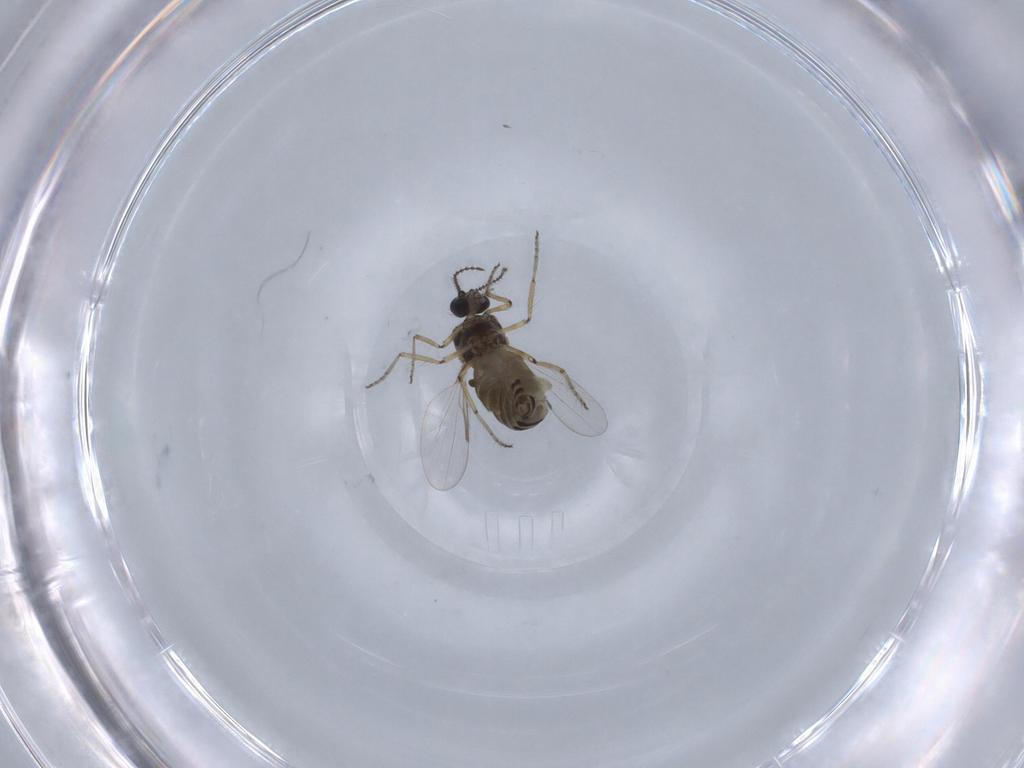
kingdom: Animalia
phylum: Arthropoda
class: Insecta
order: Diptera
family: Ceratopogonidae
